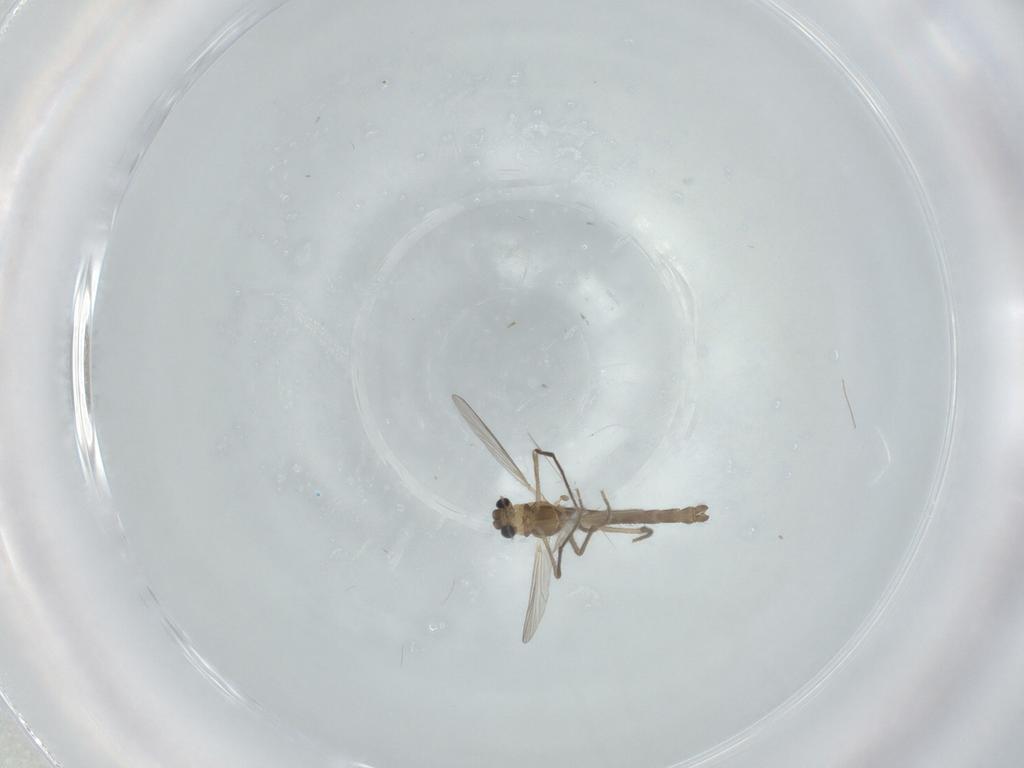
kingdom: Animalia
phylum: Arthropoda
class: Insecta
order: Diptera
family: Chironomidae
